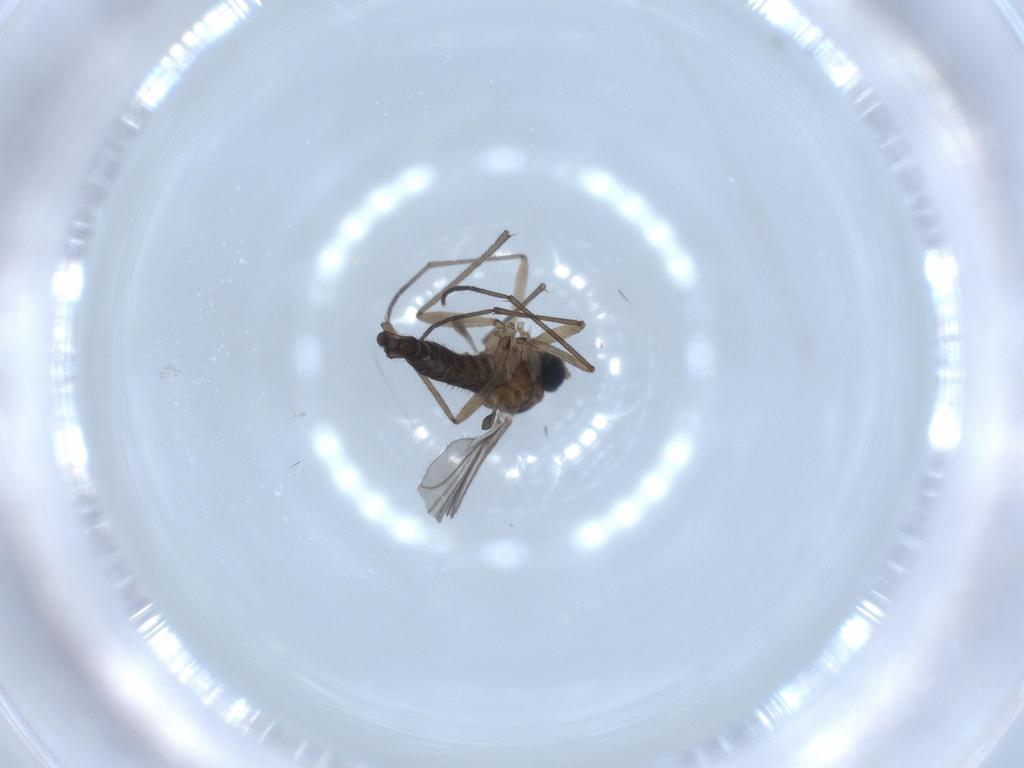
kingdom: Animalia
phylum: Arthropoda
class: Insecta
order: Diptera
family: Sciaridae
